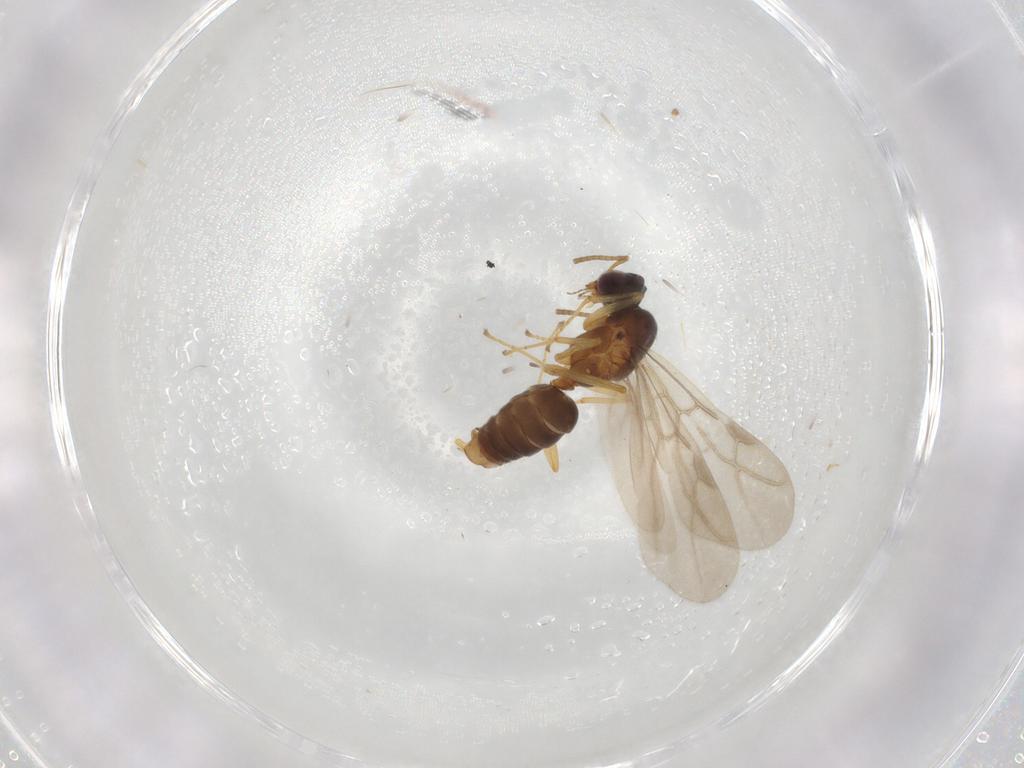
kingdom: Animalia
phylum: Arthropoda
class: Insecta
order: Hymenoptera
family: Formicidae
